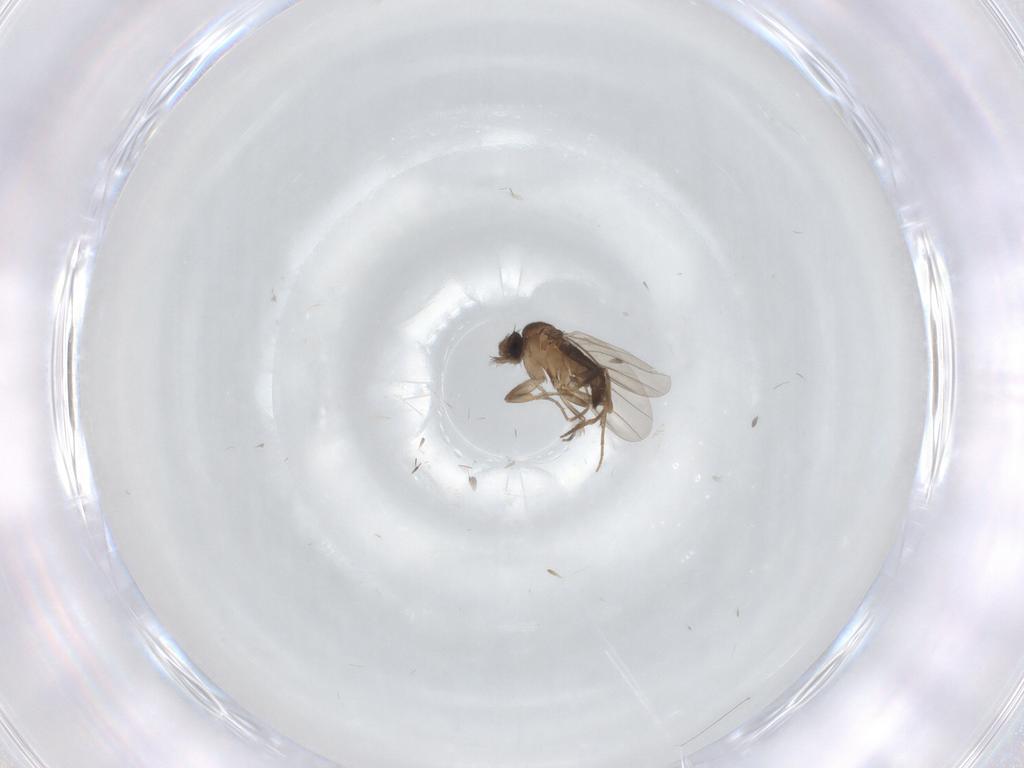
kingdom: Animalia
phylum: Arthropoda
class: Insecta
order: Diptera
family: Phoridae
